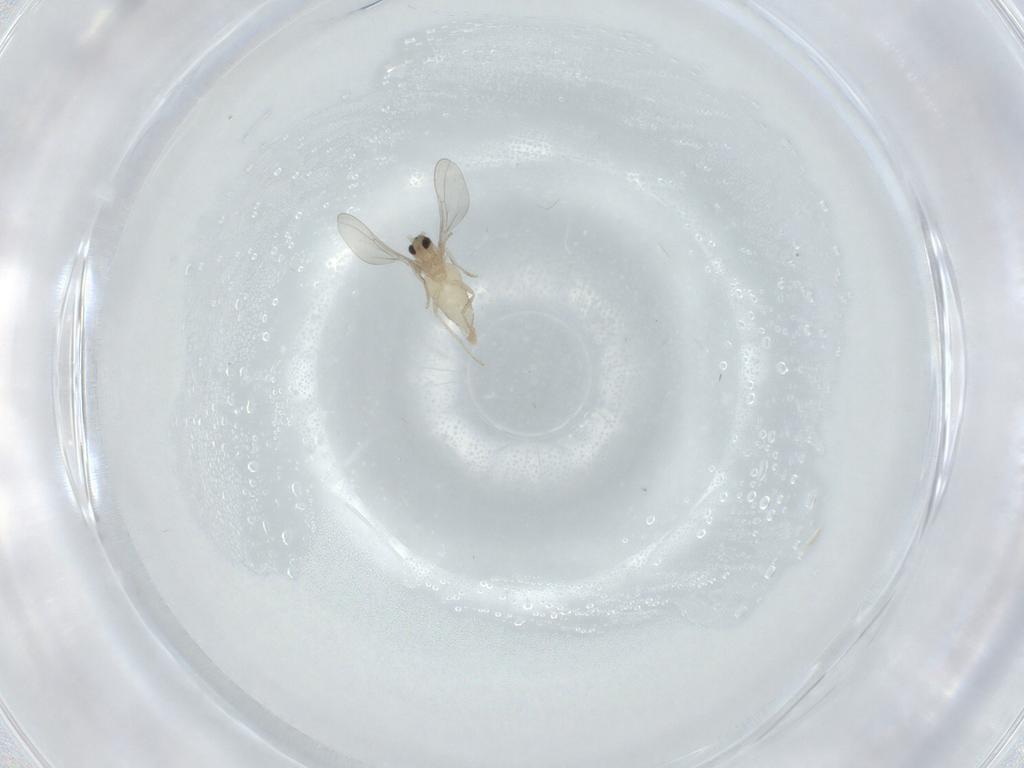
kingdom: Animalia
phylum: Arthropoda
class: Insecta
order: Diptera
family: Cecidomyiidae
